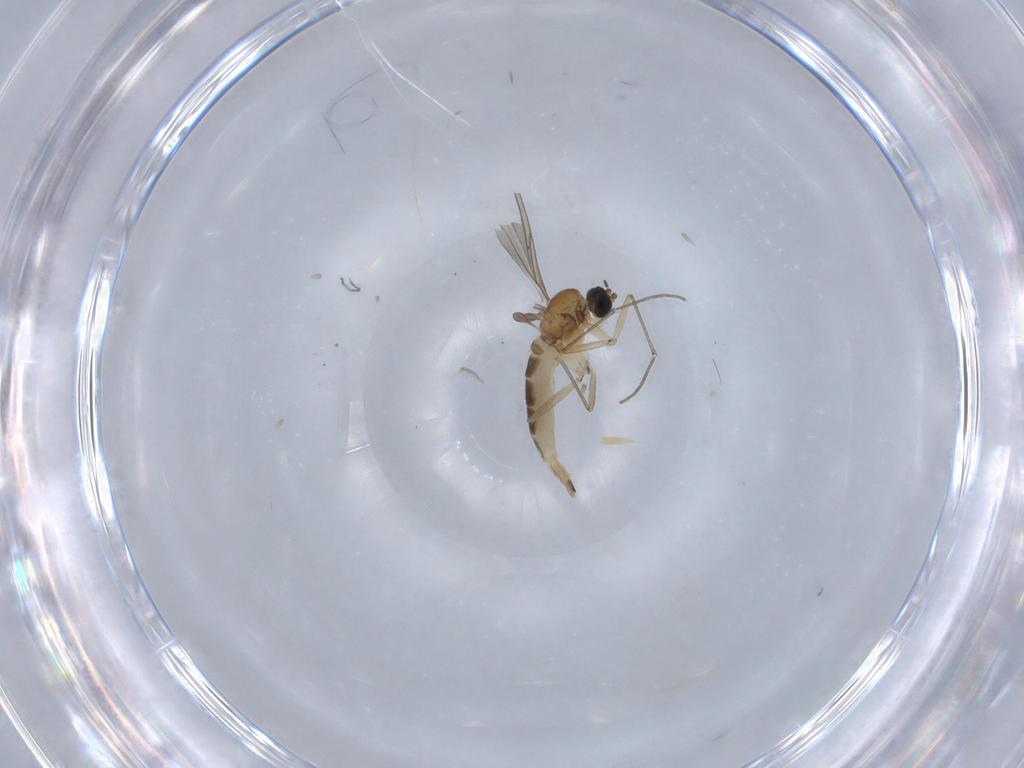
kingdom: Animalia
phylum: Arthropoda
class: Insecta
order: Diptera
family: Sciaridae
